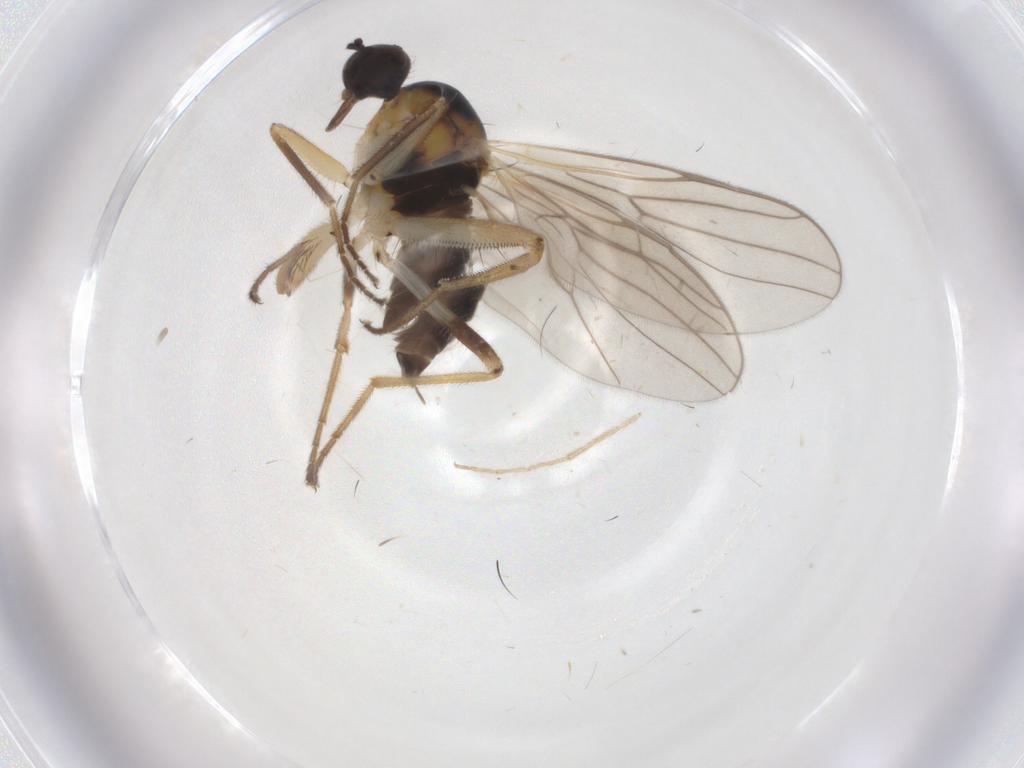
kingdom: Animalia
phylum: Arthropoda
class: Insecta
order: Diptera
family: Hybotidae
